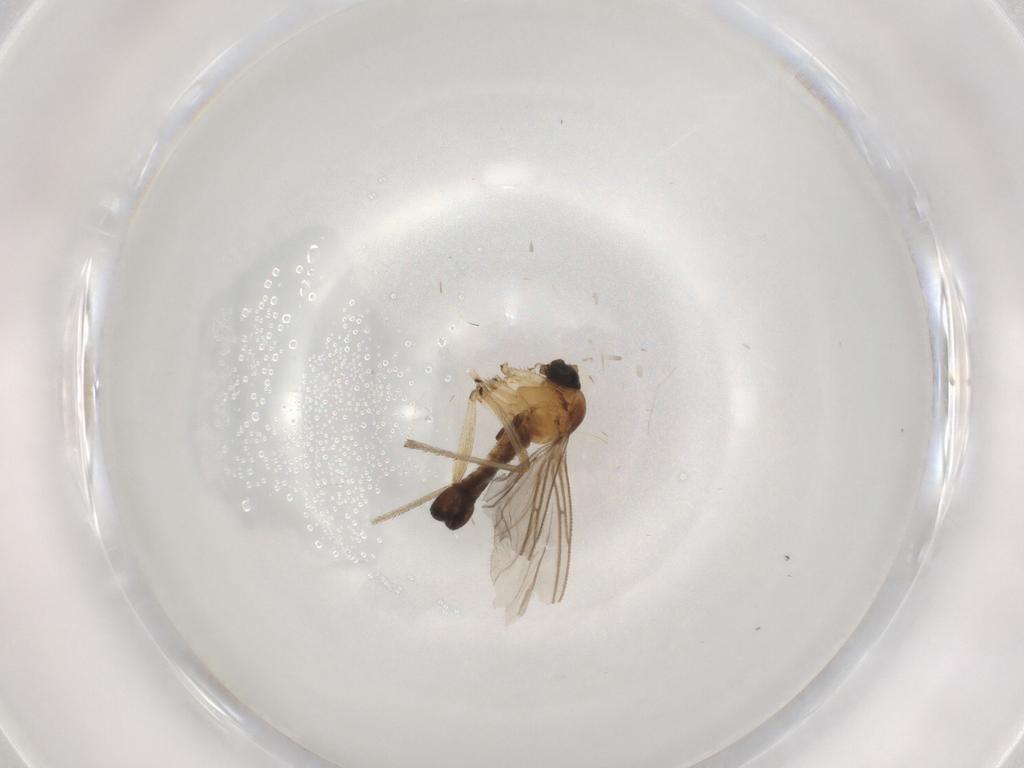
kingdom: Animalia
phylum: Arthropoda
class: Insecta
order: Diptera
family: Sciaridae
